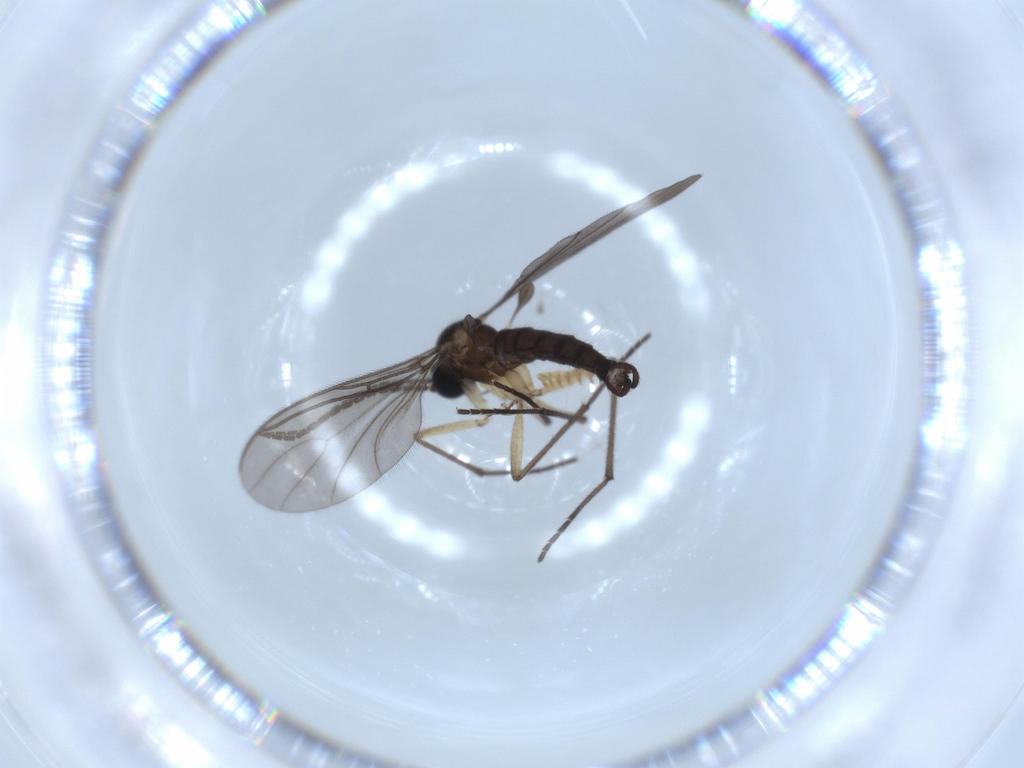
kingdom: Animalia
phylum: Arthropoda
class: Insecta
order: Diptera
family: Sciaridae
